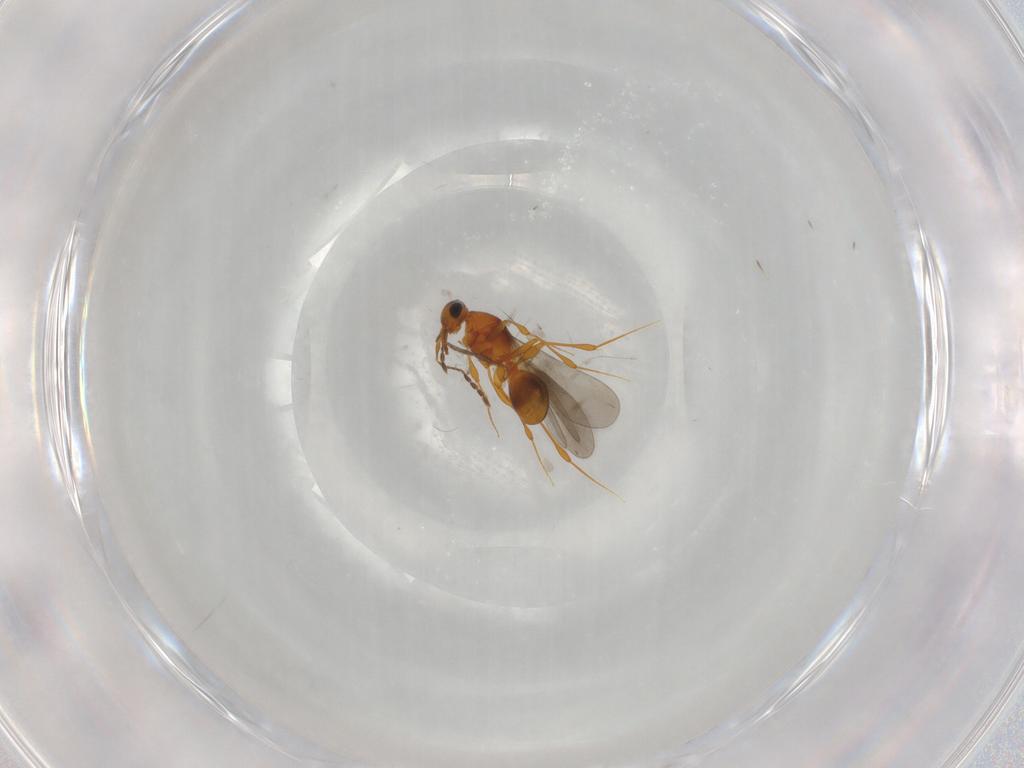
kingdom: Animalia
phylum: Arthropoda
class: Insecta
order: Hymenoptera
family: Platygastridae
